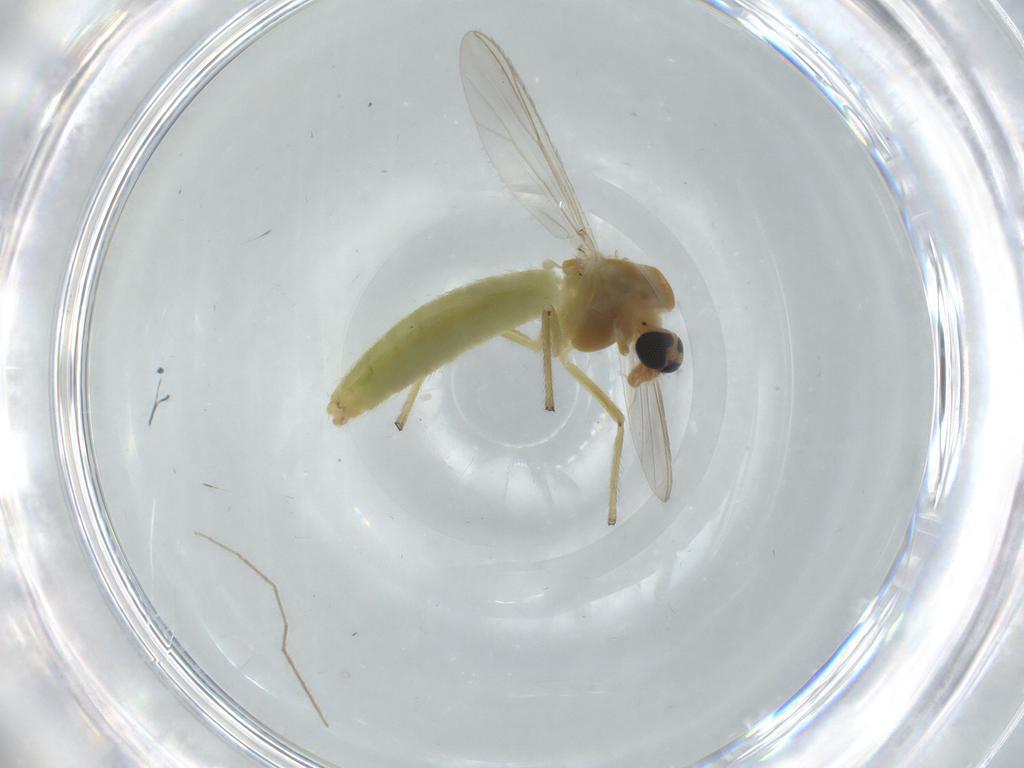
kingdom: Animalia
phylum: Arthropoda
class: Insecta
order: Diptera
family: Chironomidae
